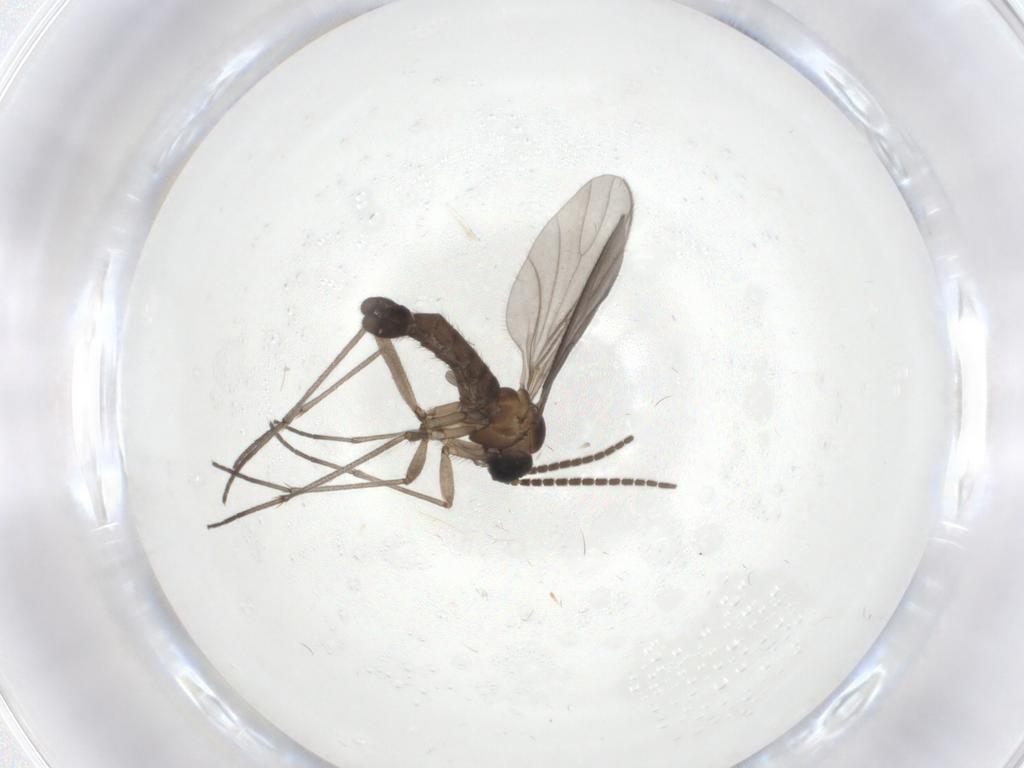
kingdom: Animalia
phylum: Arthropoda
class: Insecta
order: Diptera
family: Sciaridae
